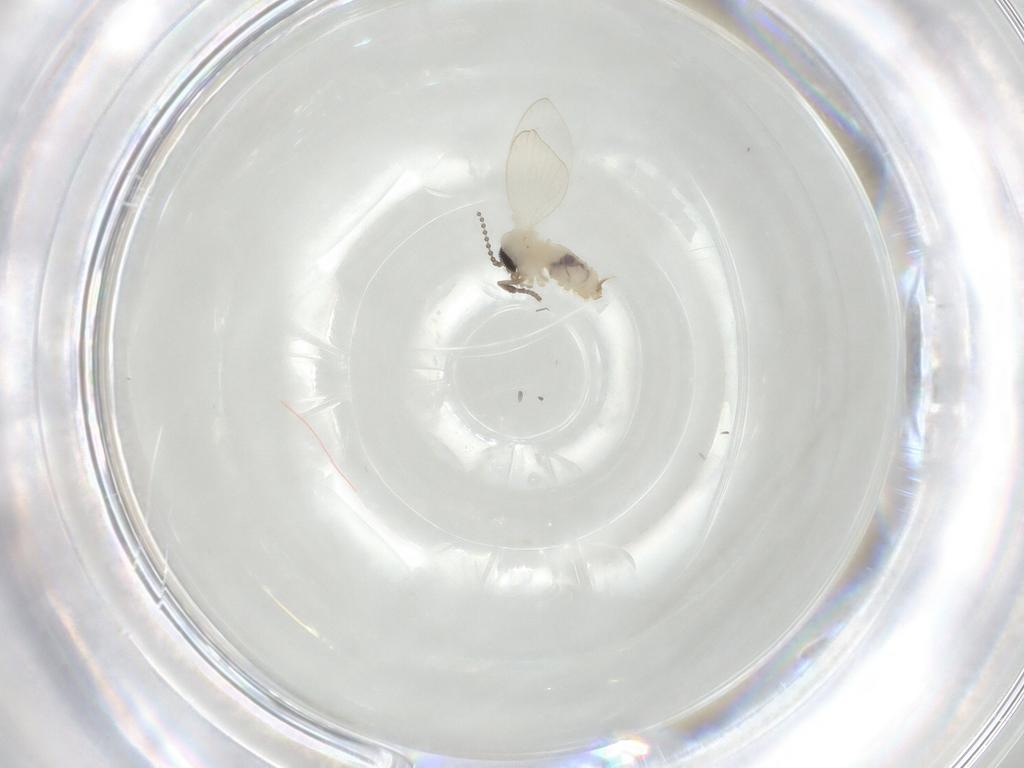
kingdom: Animalia
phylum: Arthropoda
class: Insecta
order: Diptera
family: Psychodidae
